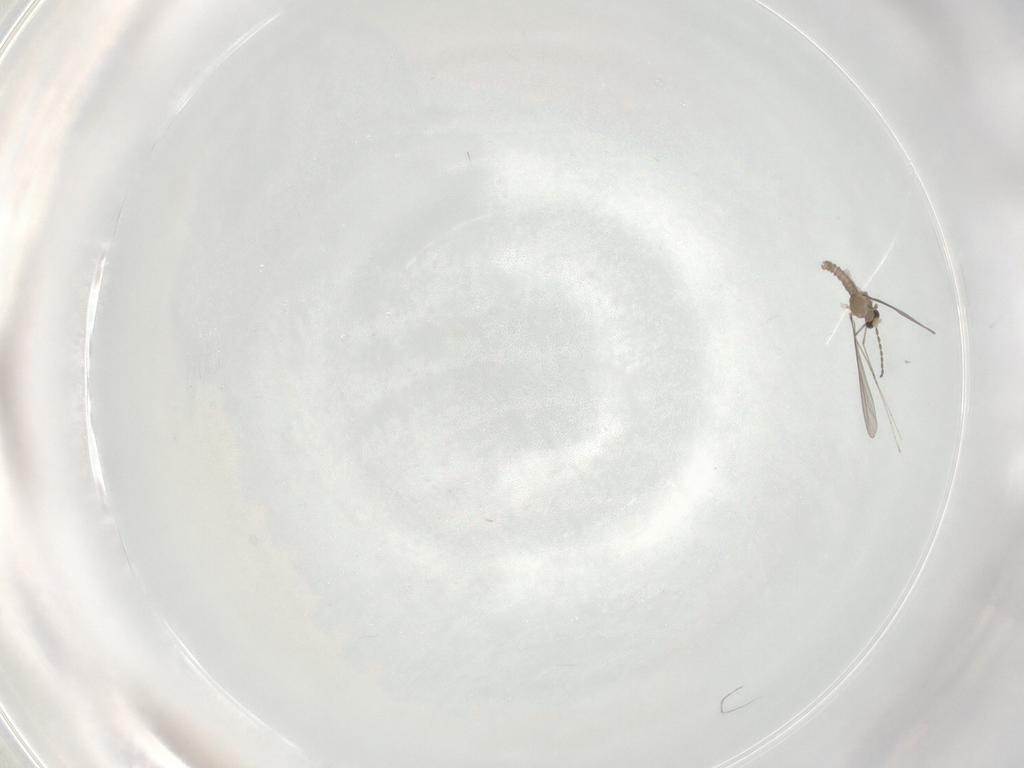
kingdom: Animalia
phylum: Arthropoda
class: Insecta
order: Diptera
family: Cecidomyiidae
